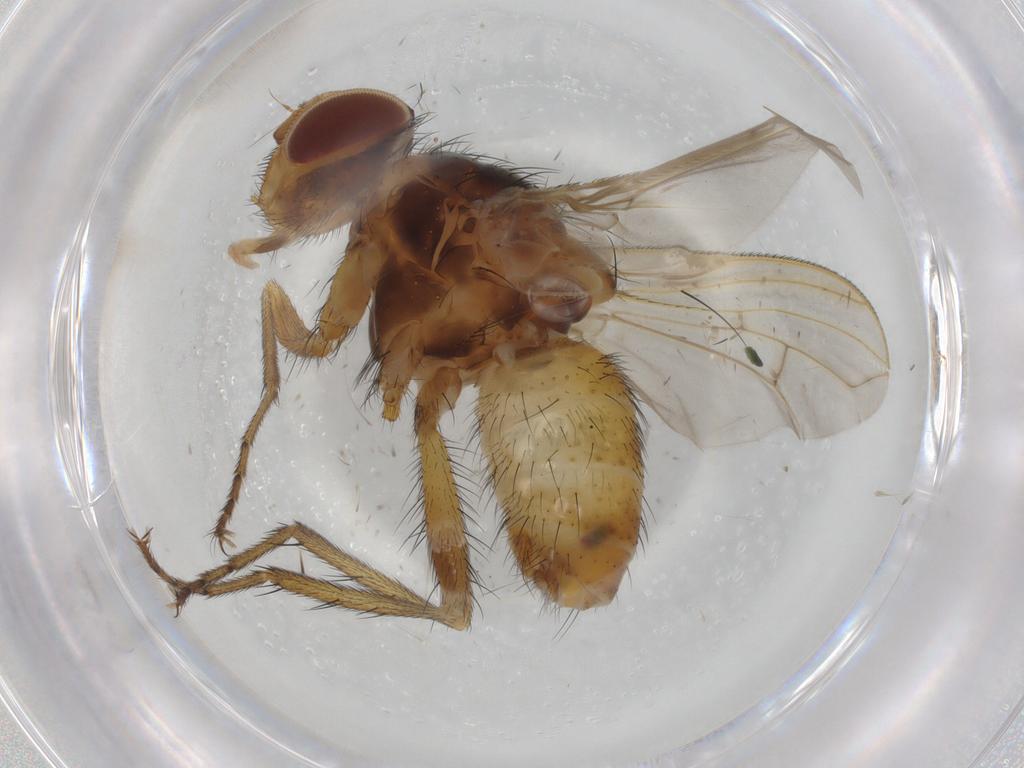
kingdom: Animalia
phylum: Arthropoda
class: Insecta
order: Diptera
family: Tachinidae
